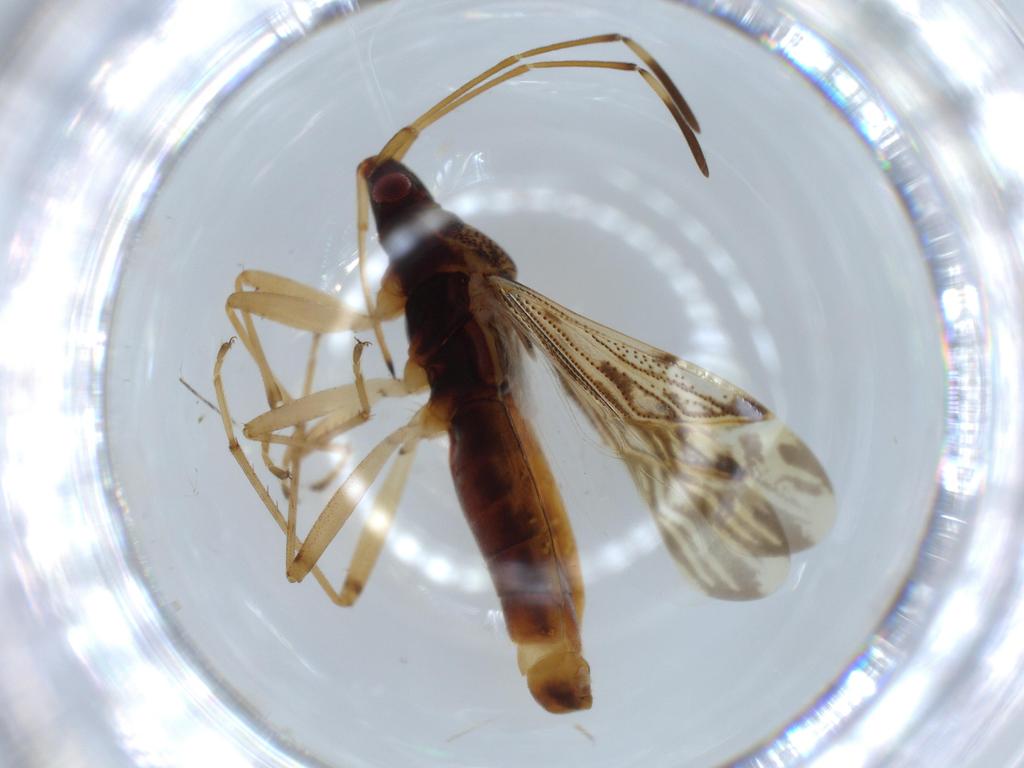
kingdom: Animalia
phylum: Arthropoda
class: Insecta
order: Hemiptera
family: Rhyparochromidae
